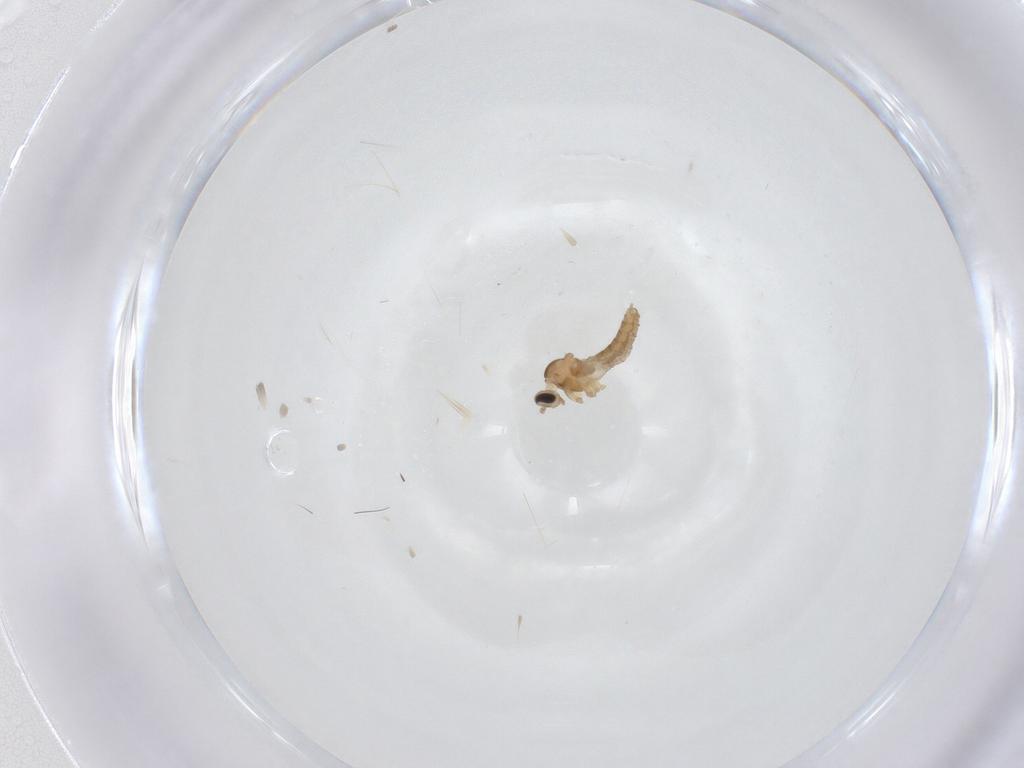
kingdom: Animalia
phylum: Arthropoda
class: Insecta
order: Diptera
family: Cecidomyiidae
